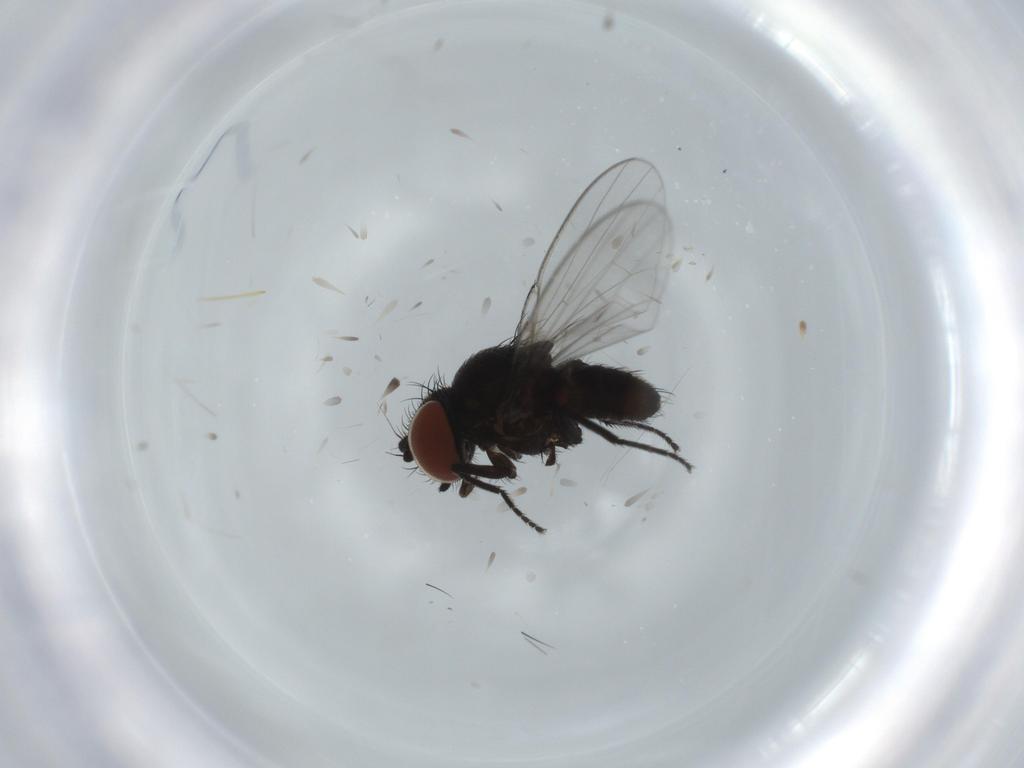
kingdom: Animalia
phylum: Arthropoda
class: Insecta
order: Diptera
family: Milichiidae
